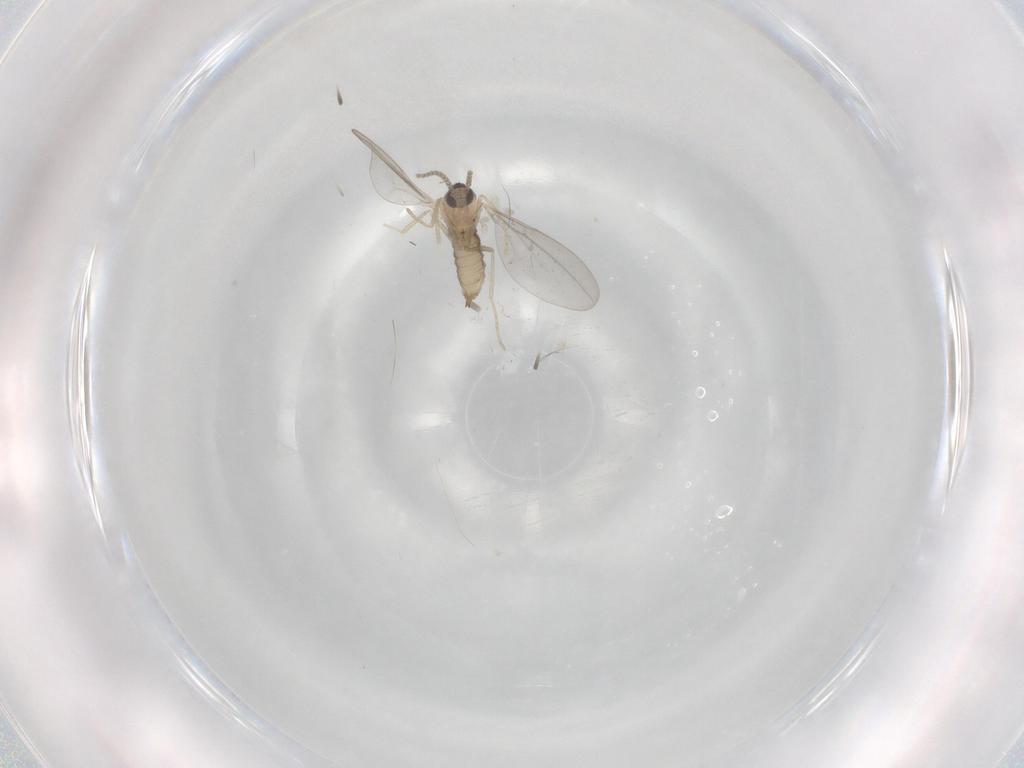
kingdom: Animalia
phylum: Arthropoda
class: Insecta
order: Diptera
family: Cecidomyiidae
